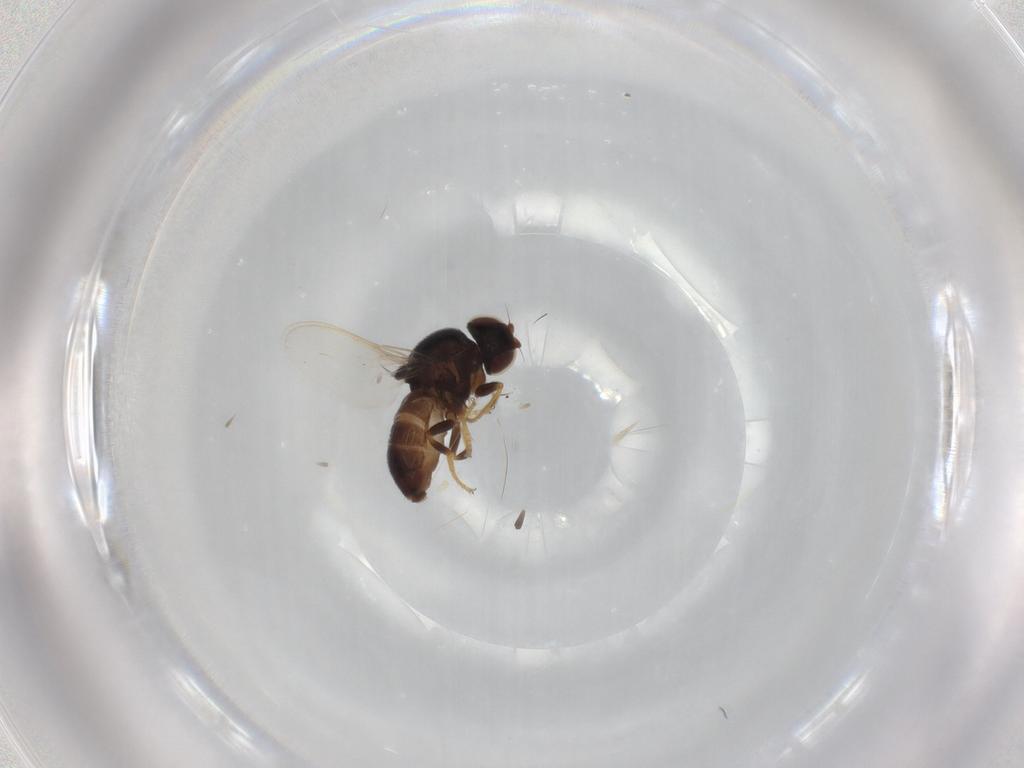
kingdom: Animalia
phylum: Arthropoda
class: Insecta
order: Diptera
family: Chloropidae
